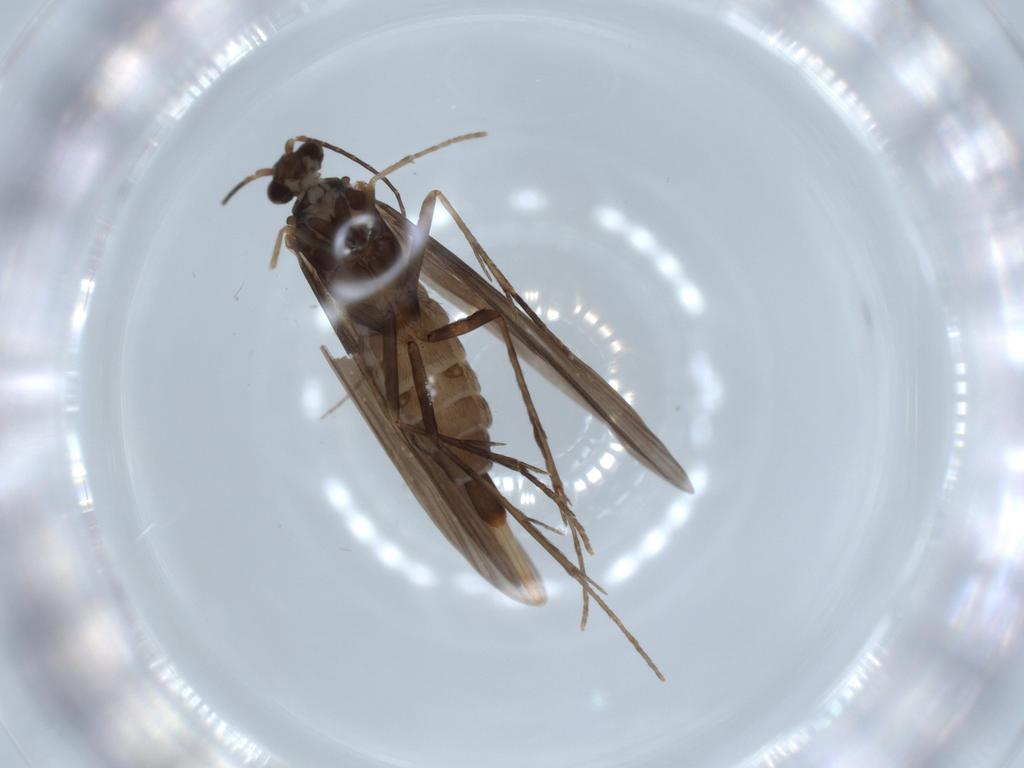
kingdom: Animalia
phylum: Arthropoda
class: Insecta
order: Trichoptera
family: Xiphocentronidae
